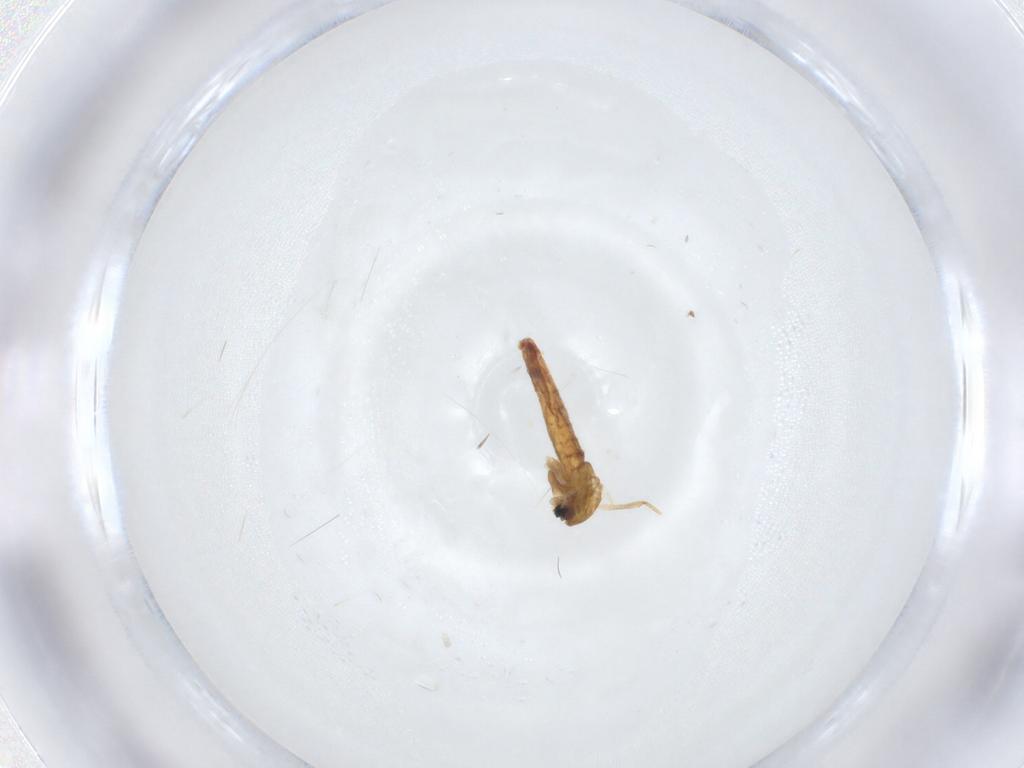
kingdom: Animalia
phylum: Arthropoda
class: Insecta
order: Diptera
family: Chironomidae
